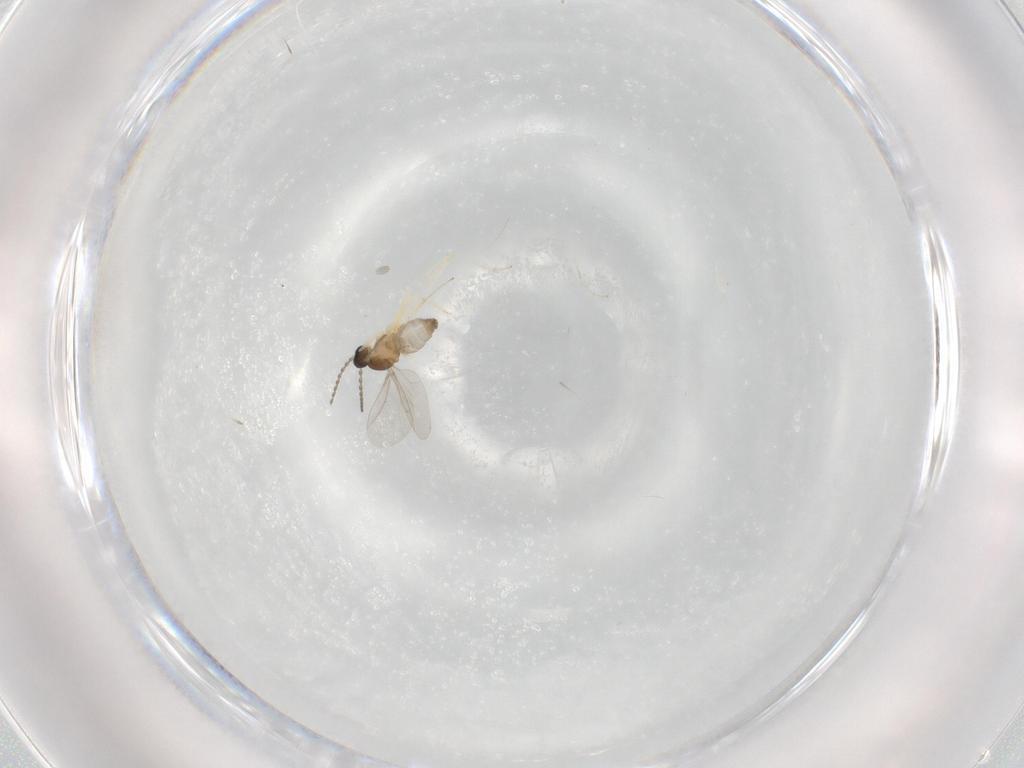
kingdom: Animalia
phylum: Arthropoda
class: Insecta
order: Diptera
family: Cecidomyiidae
